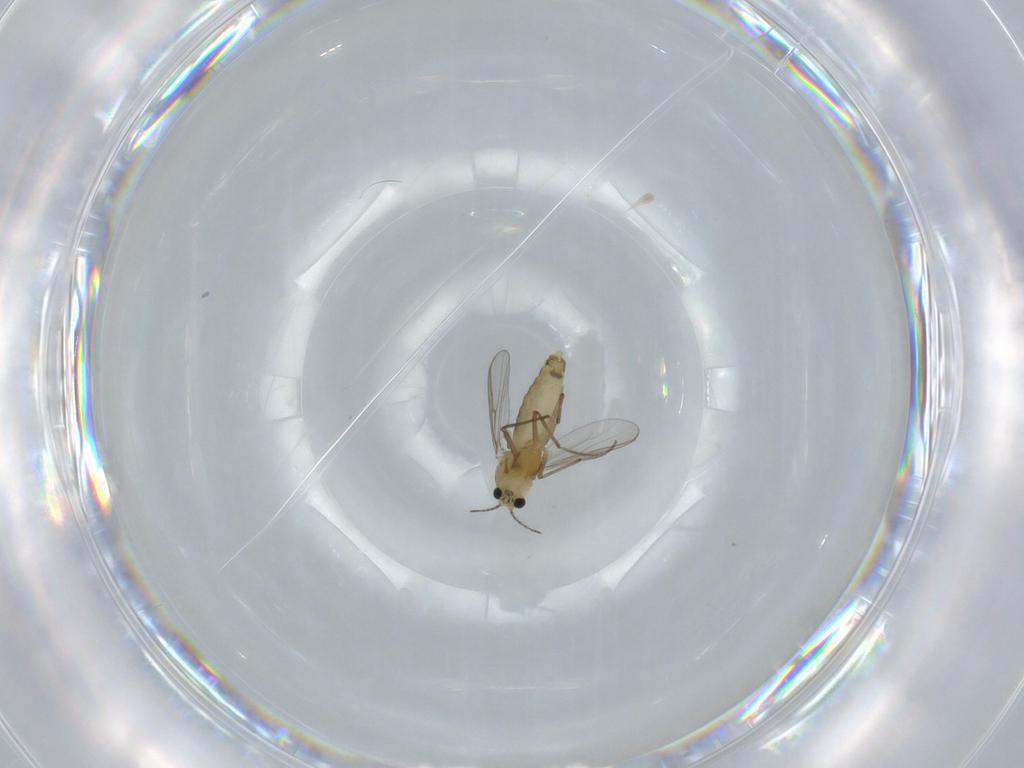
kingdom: Animalia
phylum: Arthropoda
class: Insecta
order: Diptera
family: Chironomidae
